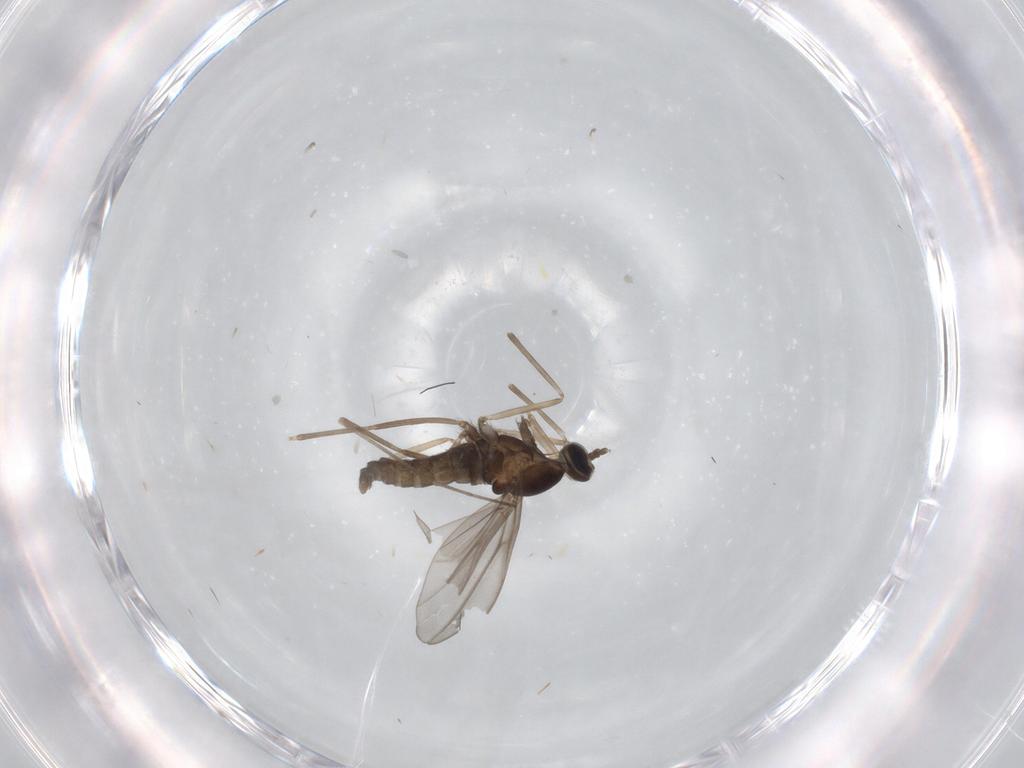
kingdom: Animalia
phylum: Arthropoda
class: Insecta
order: Diptera
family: Cecidomyiidae
